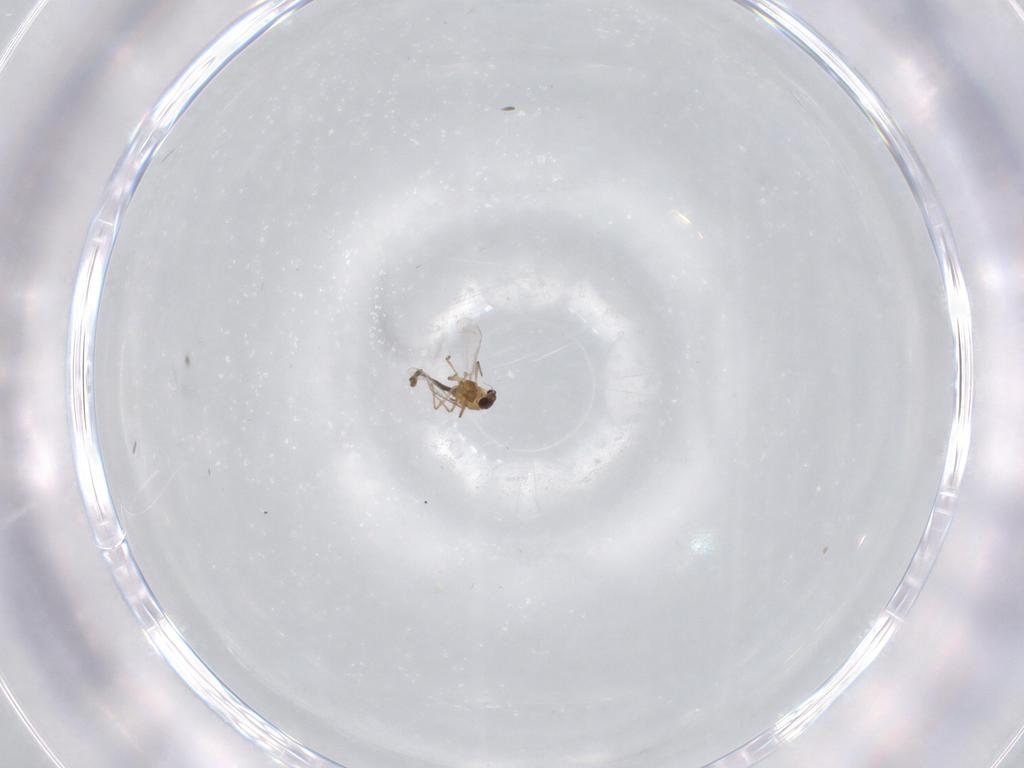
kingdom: Animalia
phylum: Arthropoda
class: Insecta
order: Diptera
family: Chironomidae
